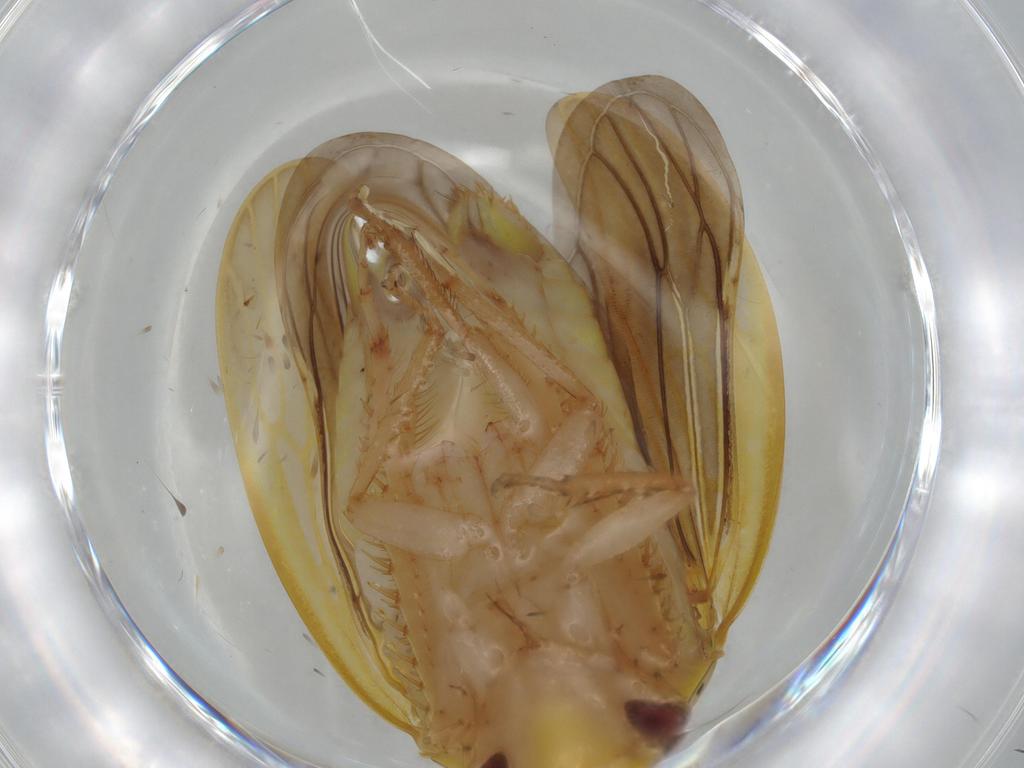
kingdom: Animalia
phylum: Arthropoda
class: Insecta
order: Hemiptera
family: Cicadellidae
